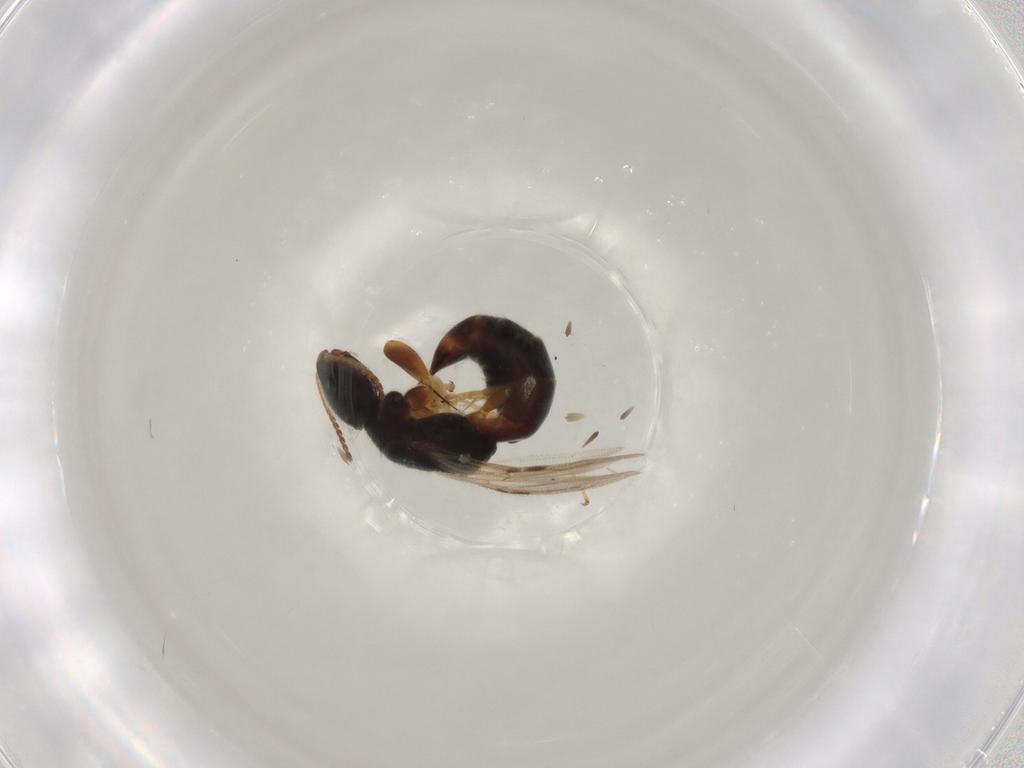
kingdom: Animalia
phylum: Arthropoda
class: Insecta
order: Hymenoptera
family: Bethylidae
